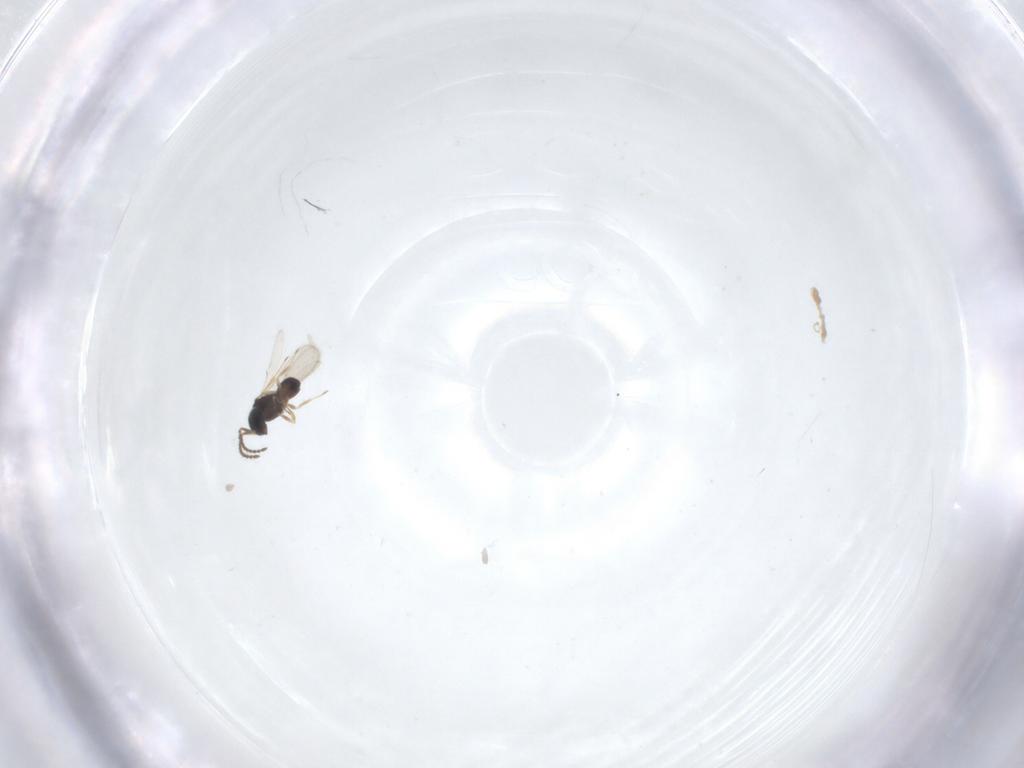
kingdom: Animalia
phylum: Arthropoda
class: Insecta
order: Hymenoptera
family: Scelionidae
